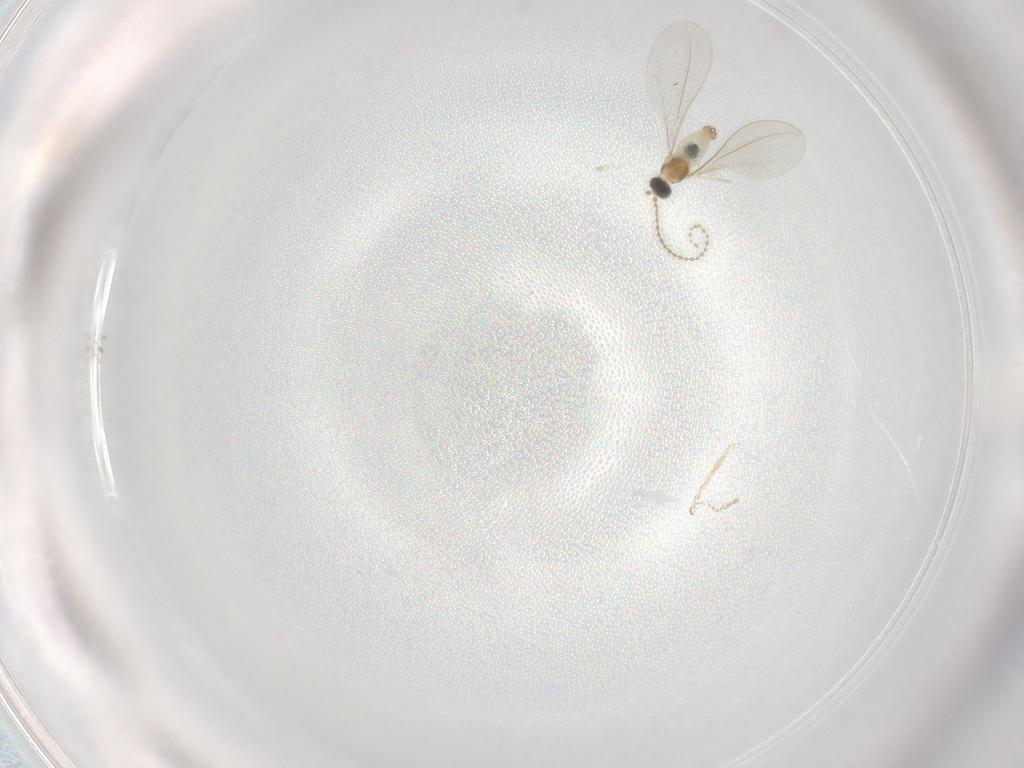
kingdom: Animalia
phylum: Arthropoda
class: Insecta
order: Diptera
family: Cecidomyiidae
